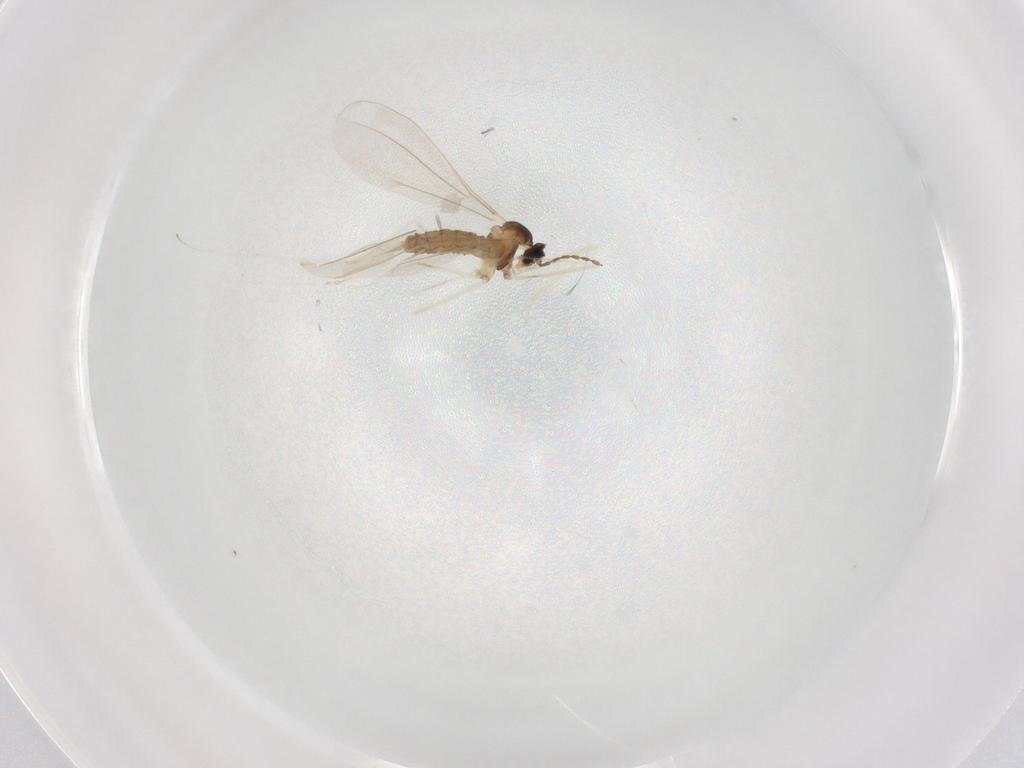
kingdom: Animalia
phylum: Arthropoda
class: Insecta
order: Diptera
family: Cecidomyiidae
